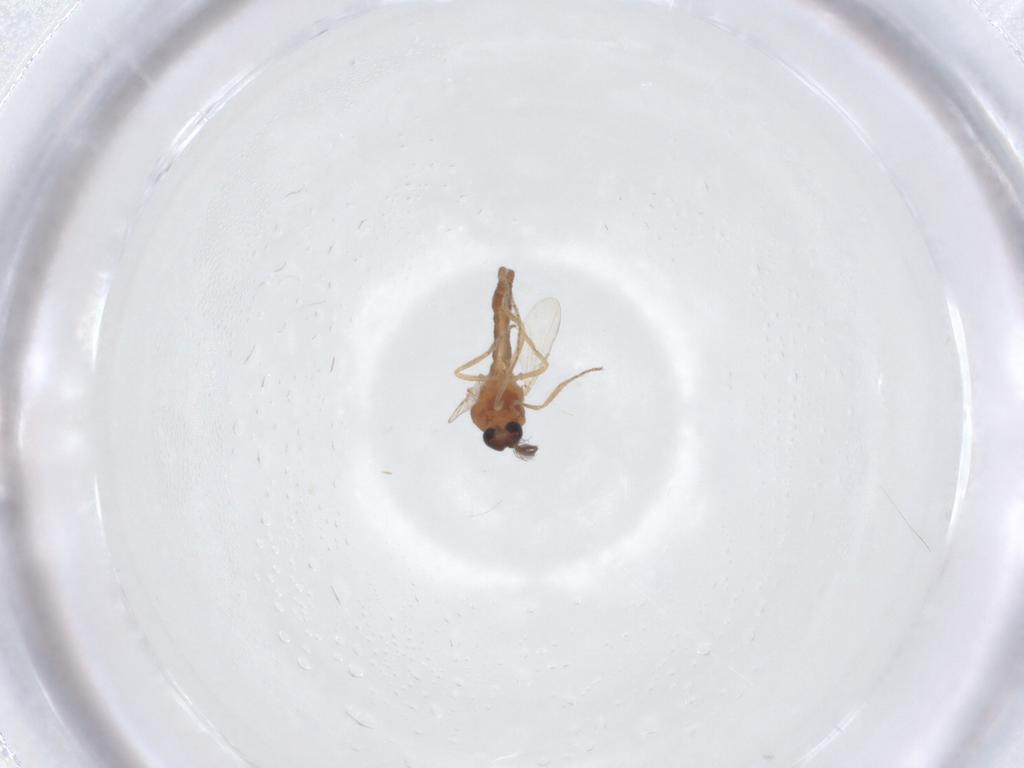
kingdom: Animalia
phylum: Arthropoda
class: Insecta
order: Diptera
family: Ceratopogonidae
